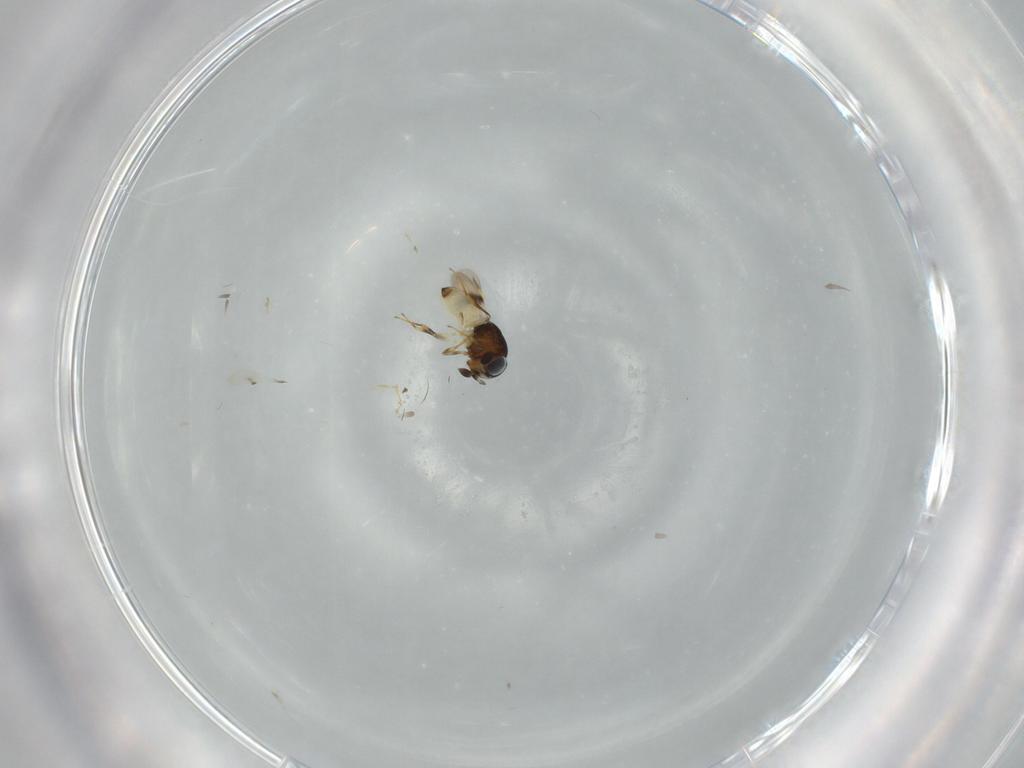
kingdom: Animalia
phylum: Arthropoda
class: Arachnida
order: Araneae
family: Pholcidae
